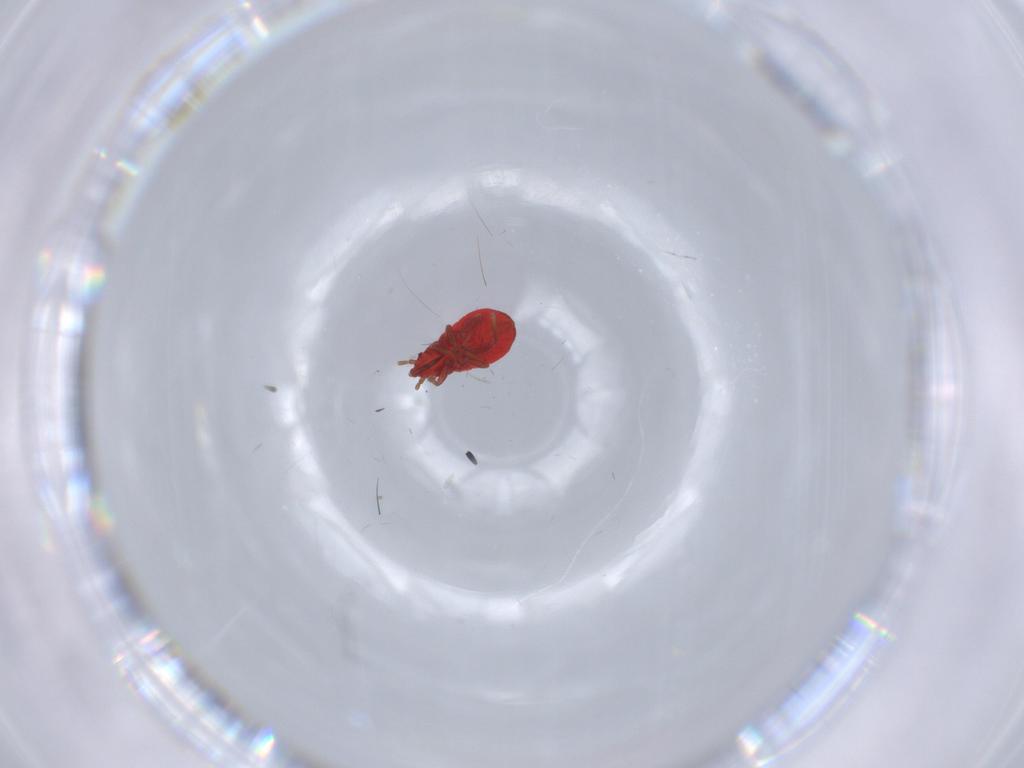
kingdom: Animalia
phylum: Arthropoda
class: Insecta
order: Hemiptera
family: Anthocoridae
